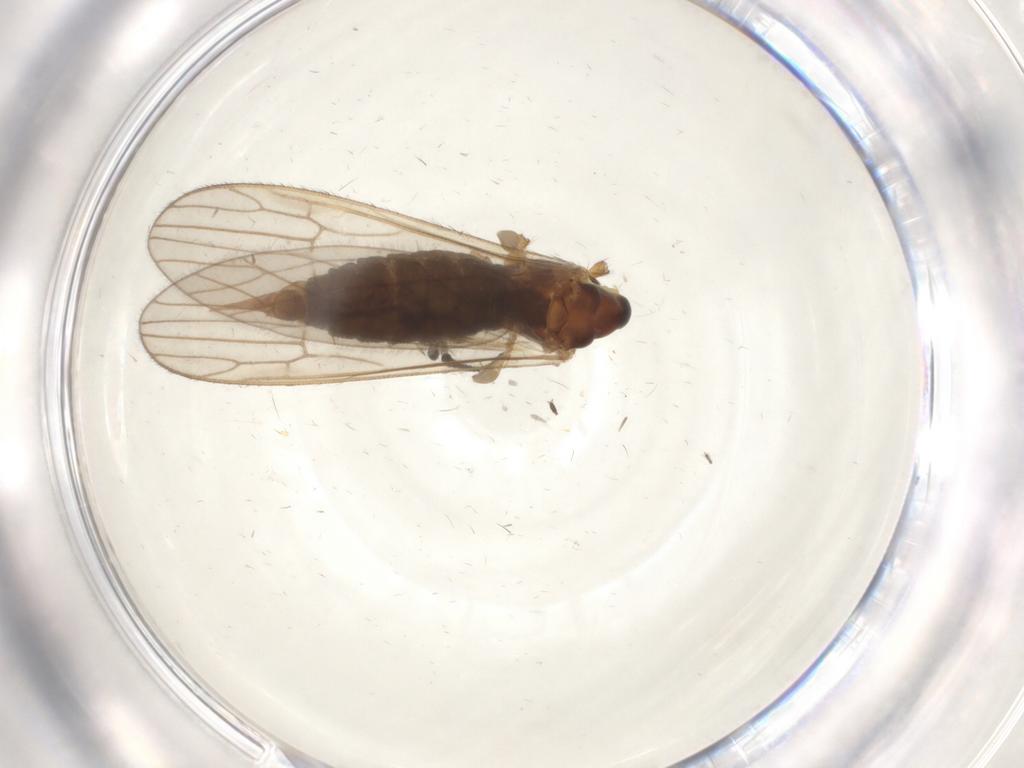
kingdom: Animalia
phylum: Arthropoda
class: Insecta
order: Diptera
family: Agromyzidae
